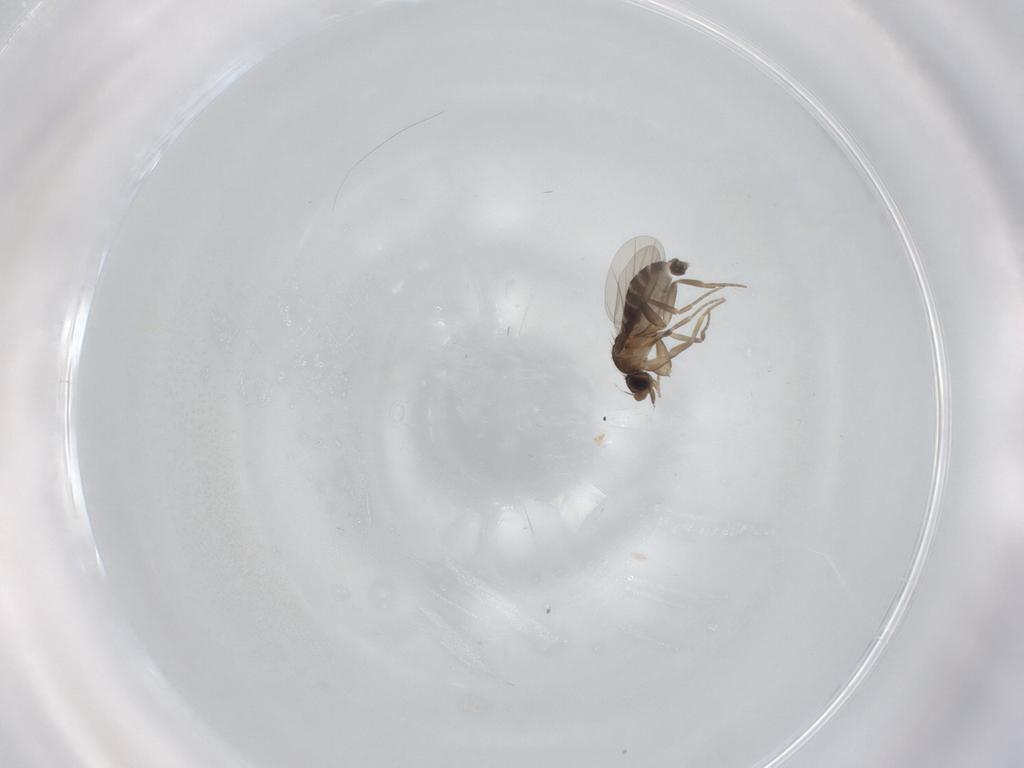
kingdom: Animalia
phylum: Arthropoda
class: Insecta
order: Diptera
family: Phoridae
